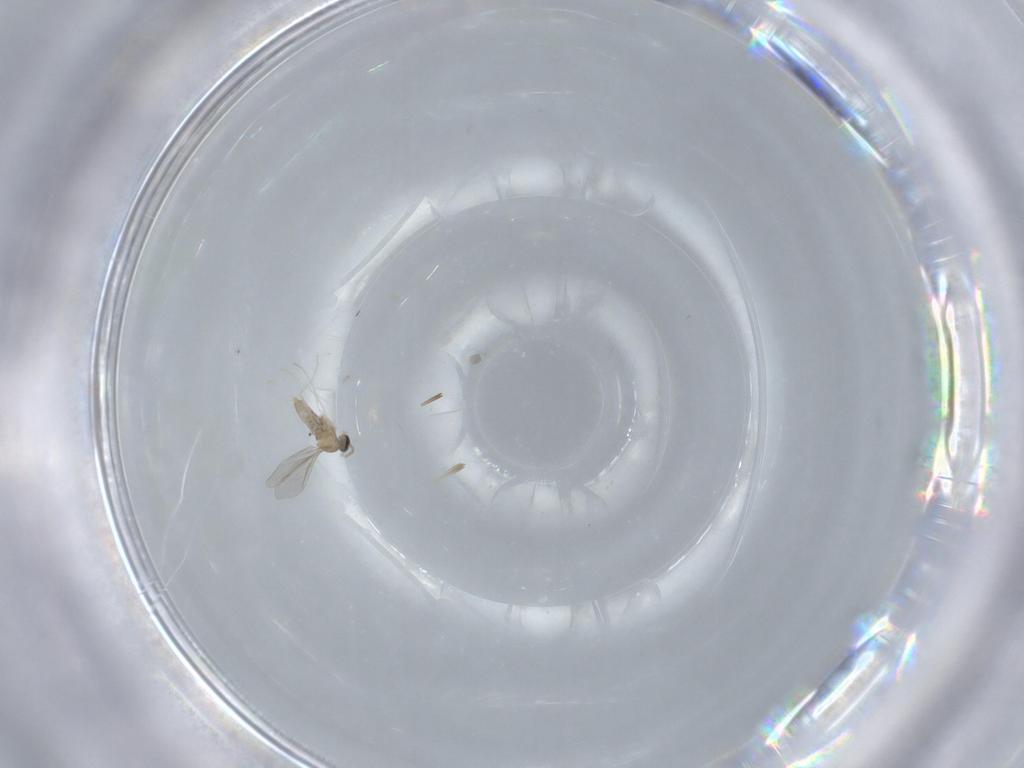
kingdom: Animalia
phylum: Arthropoda
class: Insecta
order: Diptera
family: Cecidomyiidae
